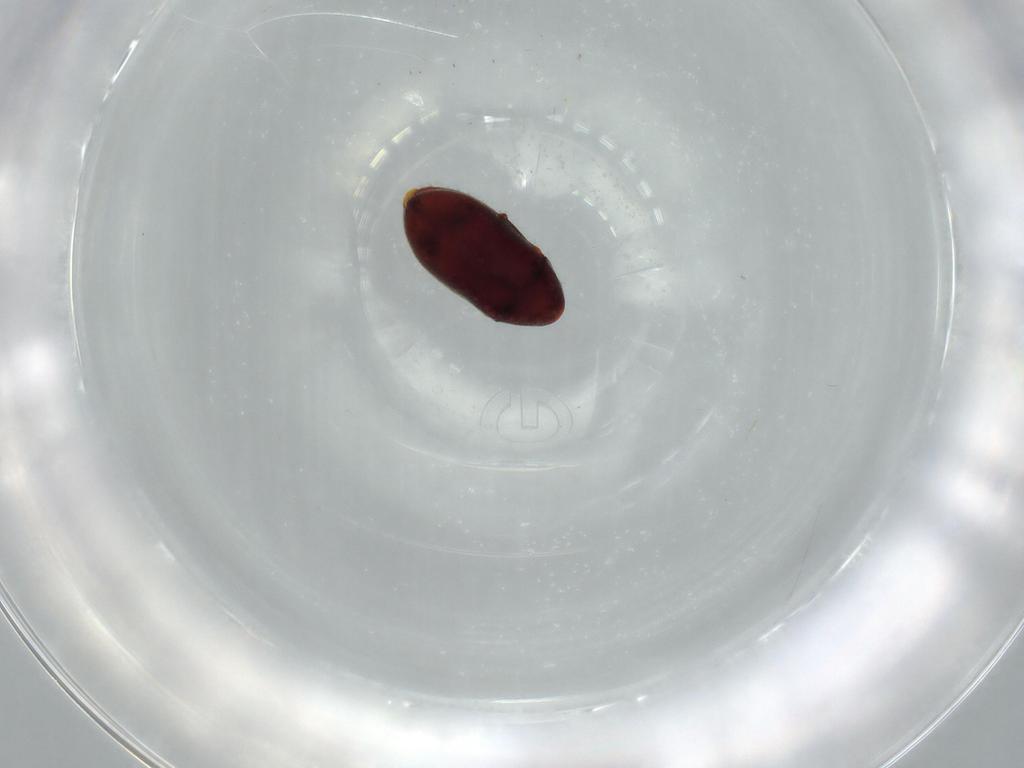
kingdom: Animalia
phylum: Arthropoda
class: Insecta
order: Coleoptera
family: Ptinidae
